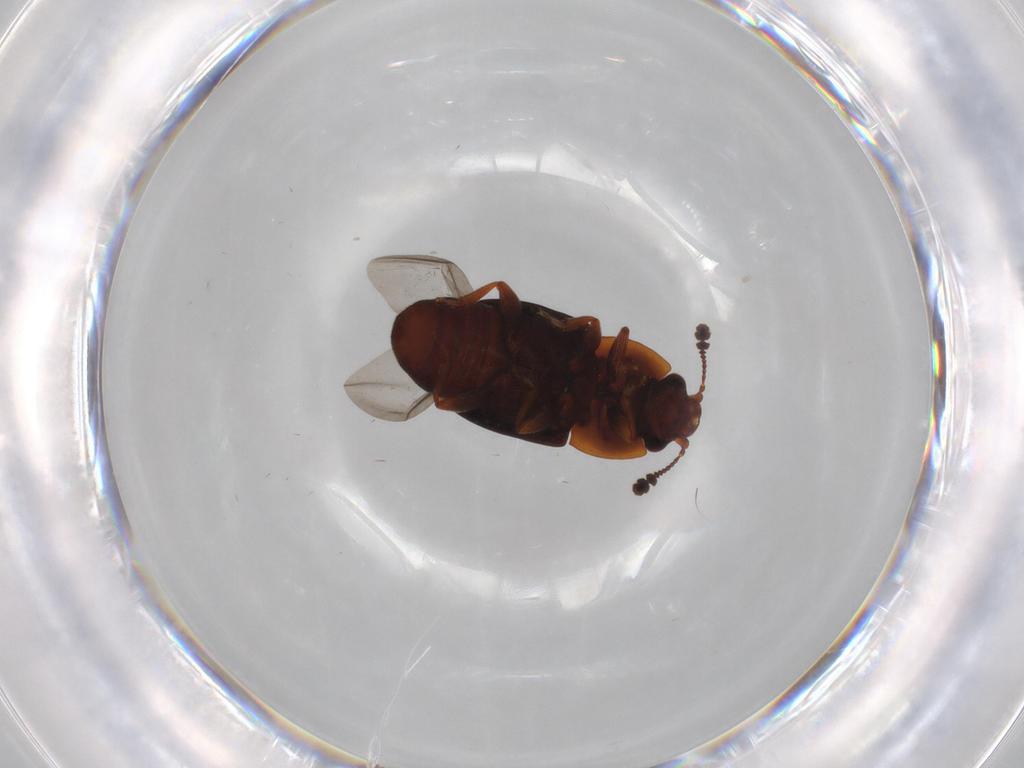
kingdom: Animalia
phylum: Arthropoda
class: Insecta
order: Coleoptera
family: Nitidulidae
